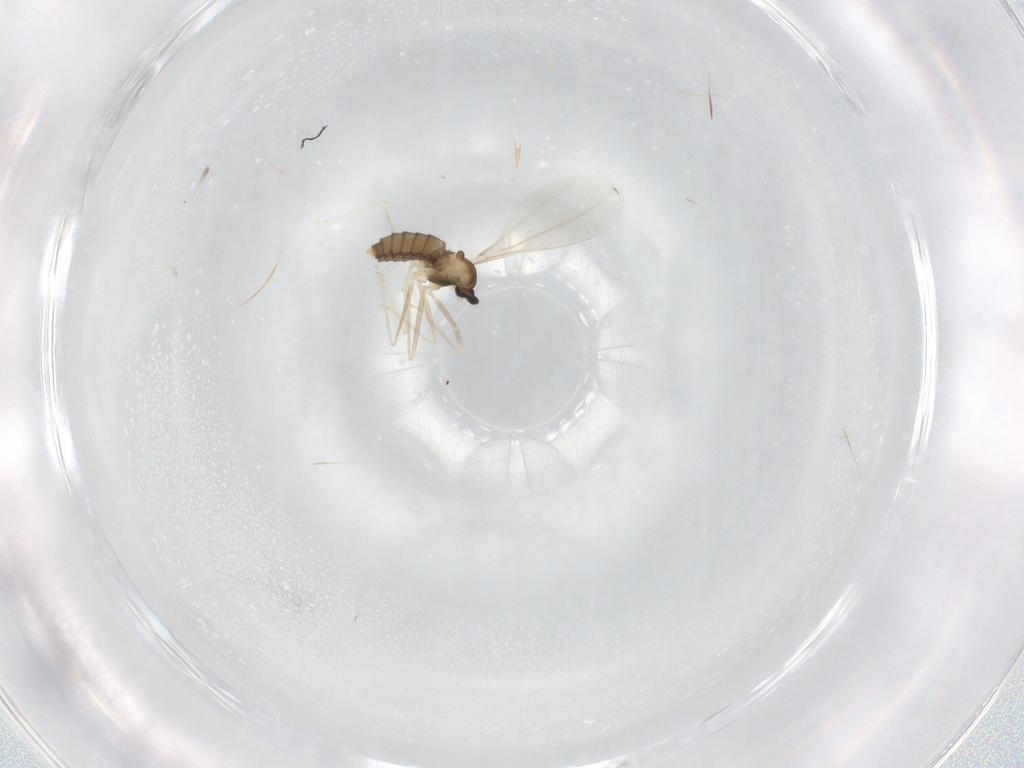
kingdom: Animalia
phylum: Arthropoda
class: Insecta
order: Diptera
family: Cecidomyiidae
